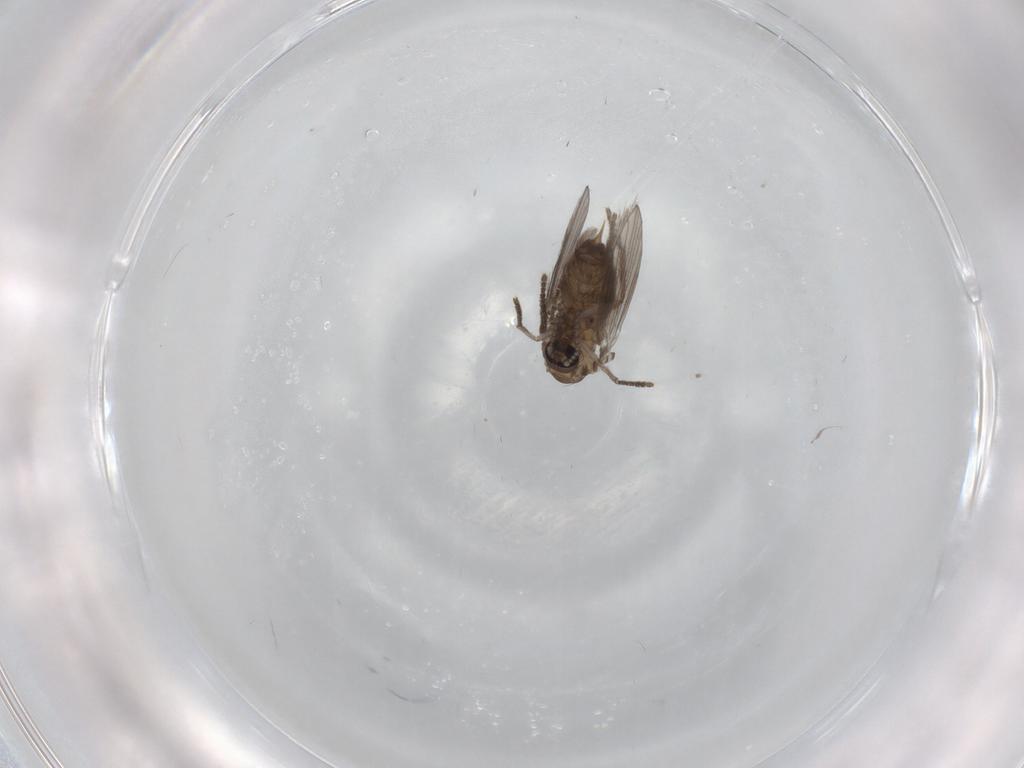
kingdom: Animalia
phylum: Arthropoda
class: Insecta
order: Diptera
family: Psychodidae
